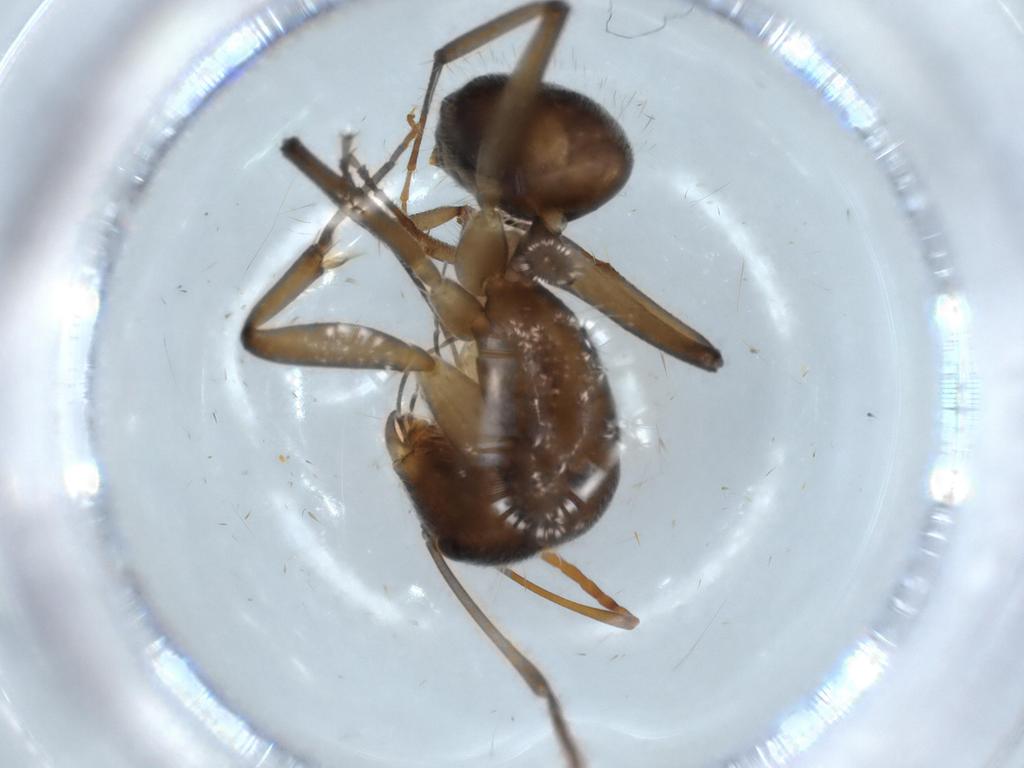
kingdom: Animalia
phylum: Arthropoda
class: Insecta
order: Hymenoptera
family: Formicidae
